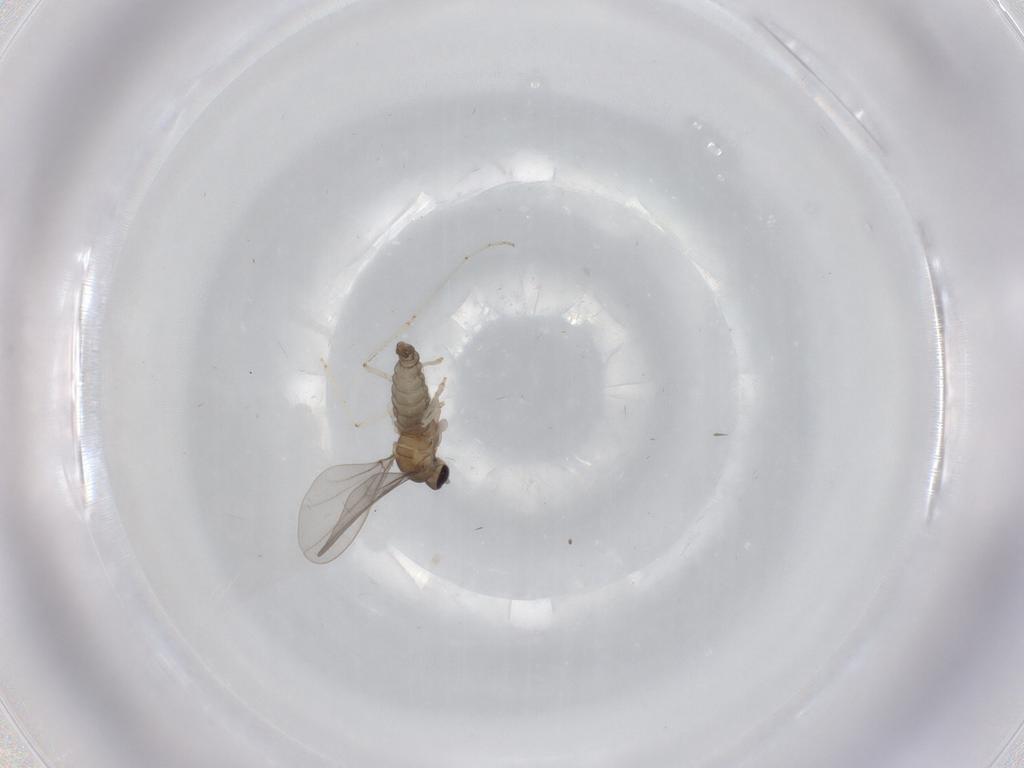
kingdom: Animalia
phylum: Arthropoda
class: Insecta
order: Diptera
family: Cecidomyiidae
